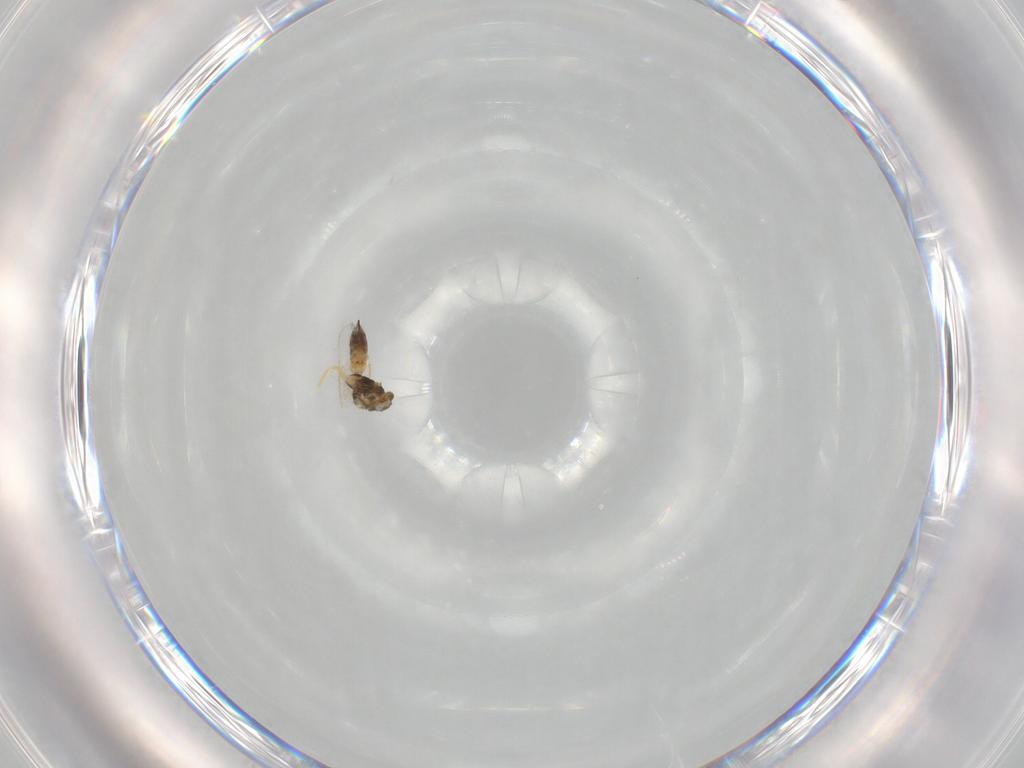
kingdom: Animalia
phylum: Arthropoda
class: Insecta
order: Hymenoptera
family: Eulophidae
